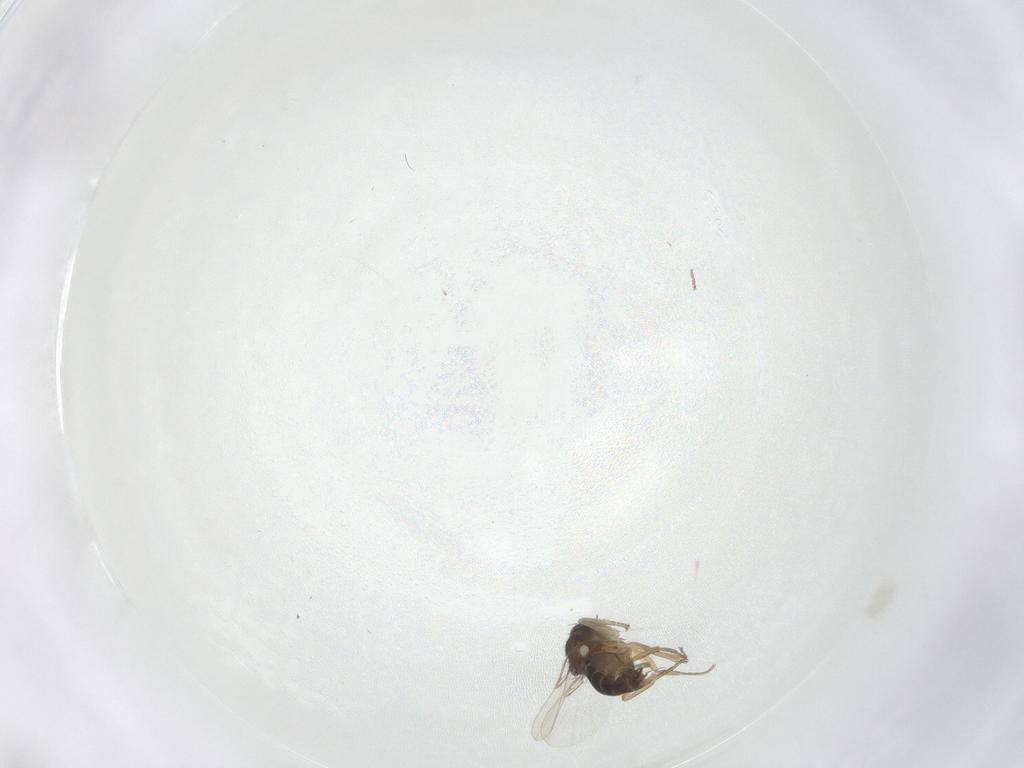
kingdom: Animalia
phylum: Arthropoda
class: Insecta
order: Diptera
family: Phoridae
